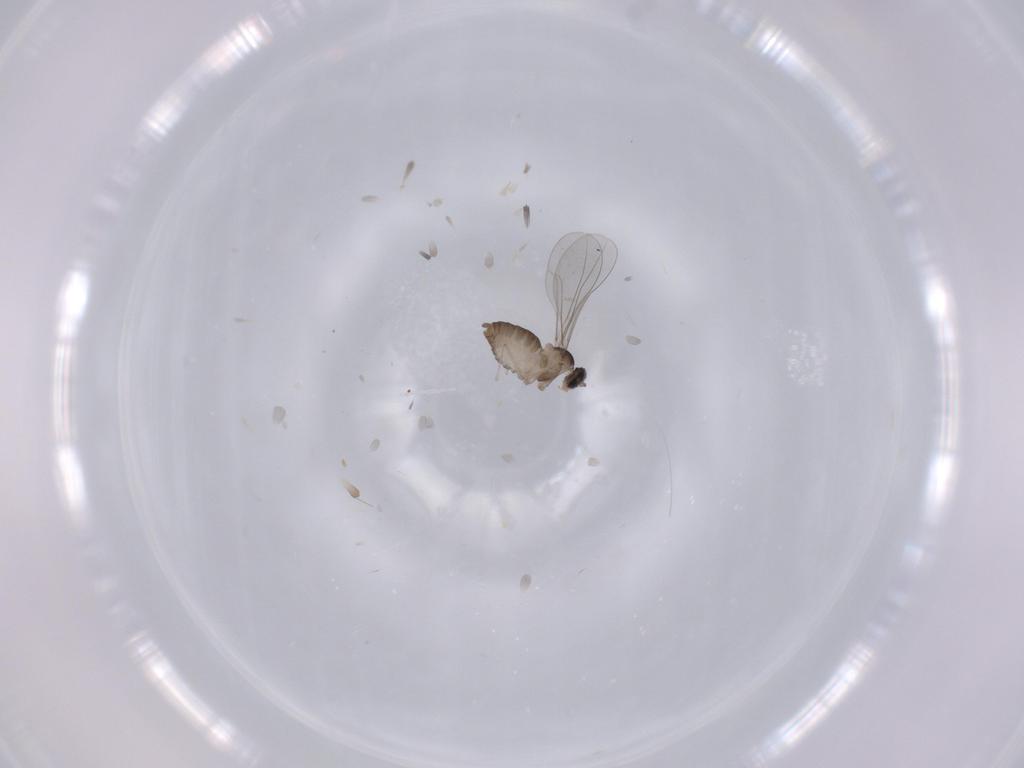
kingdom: Animalia
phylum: Arthropoda
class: Insecta
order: Diptera
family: Cecidomyiidae
